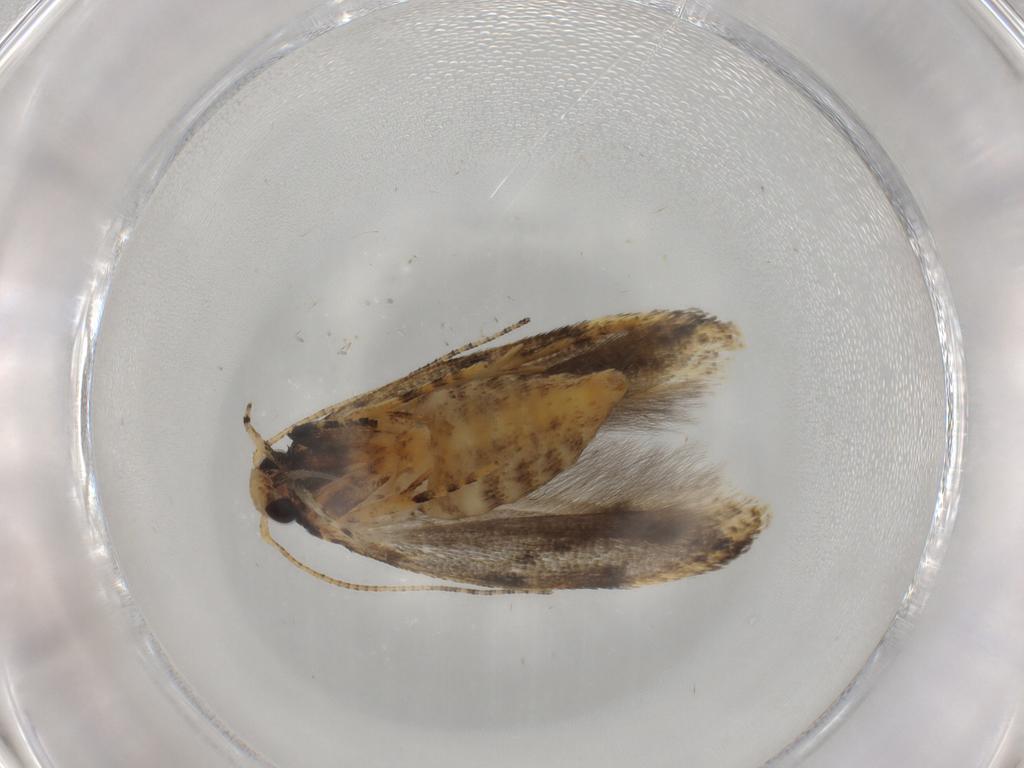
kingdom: Animalia
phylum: Arthropoda
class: Insecta
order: Lepidoptera
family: Gelechiidae
